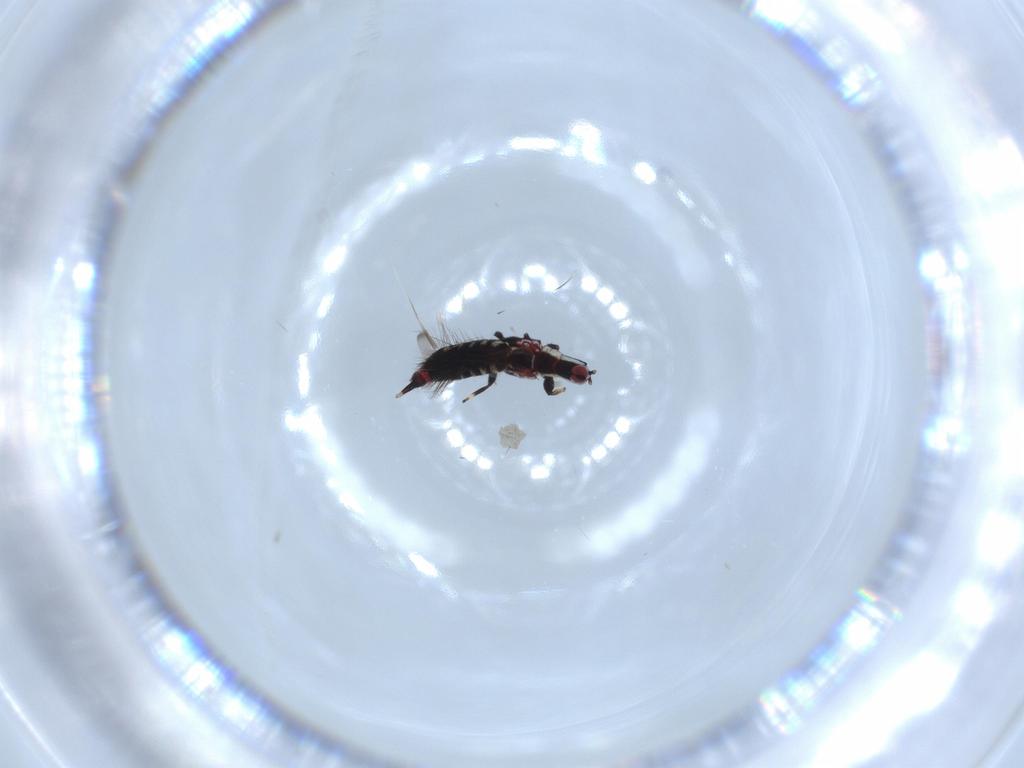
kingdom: Animalia
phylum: Arthropoda
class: Insecta
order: Thysanoptera
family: Phlaeothripidae
